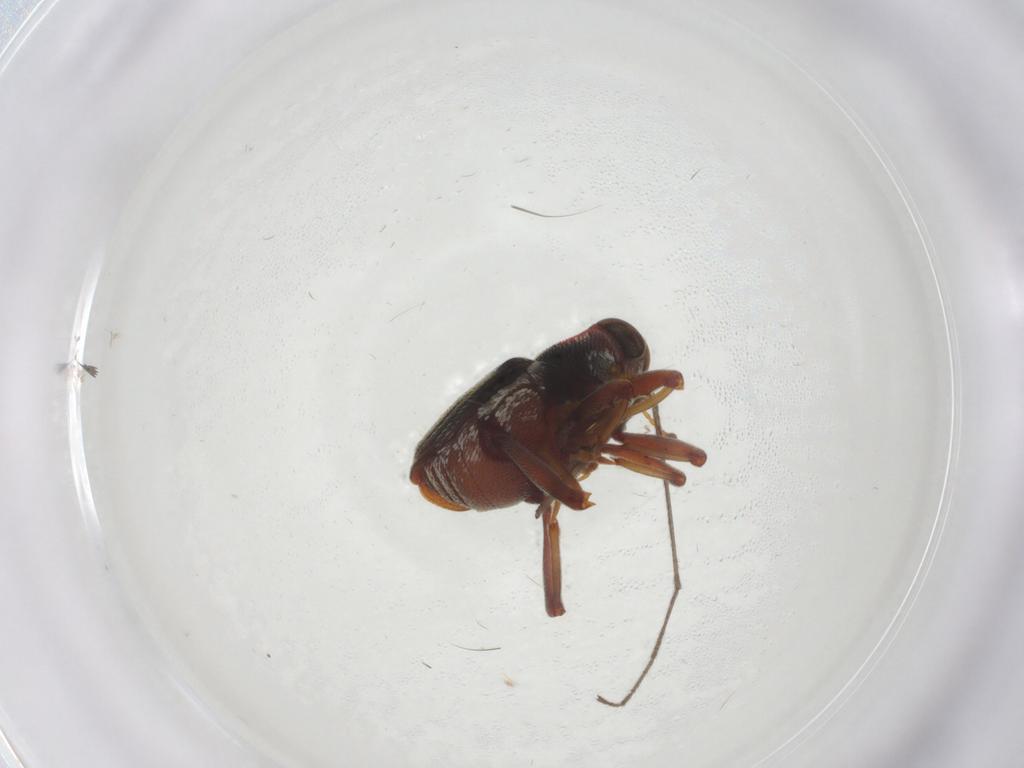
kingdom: Animalia
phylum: Arthropoda
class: Insecta
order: Coleoptera
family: Curculionidae
